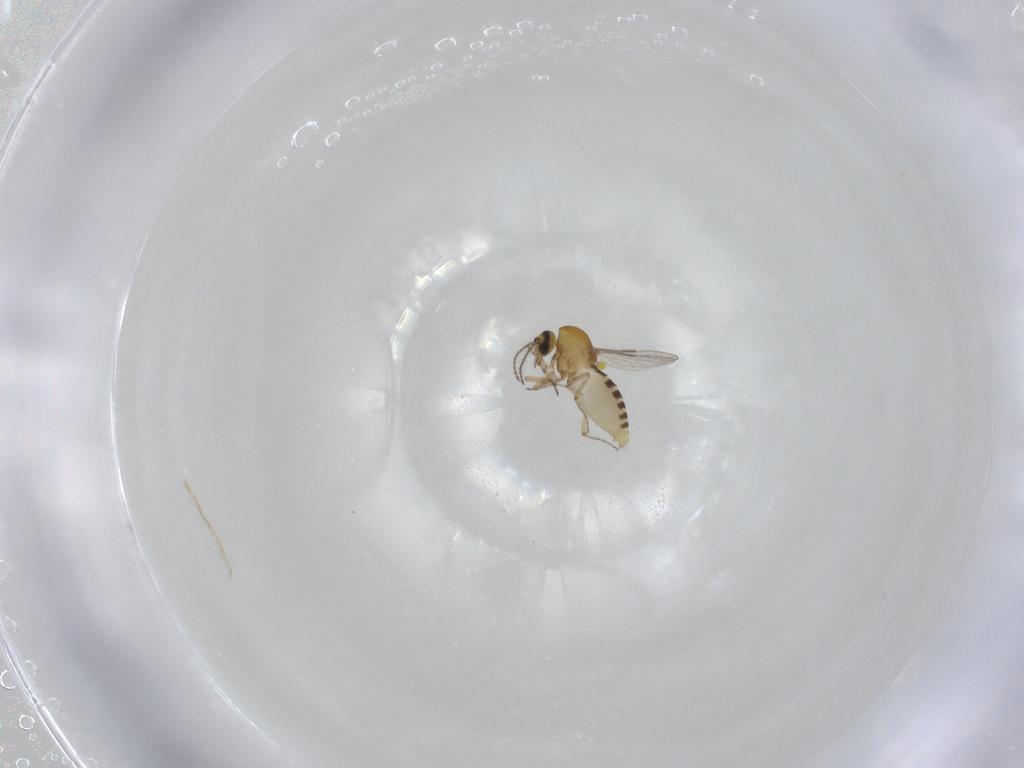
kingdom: Animalia
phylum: Arthropoda
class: Insecta
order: Diptera
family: Ceratopogonidae
